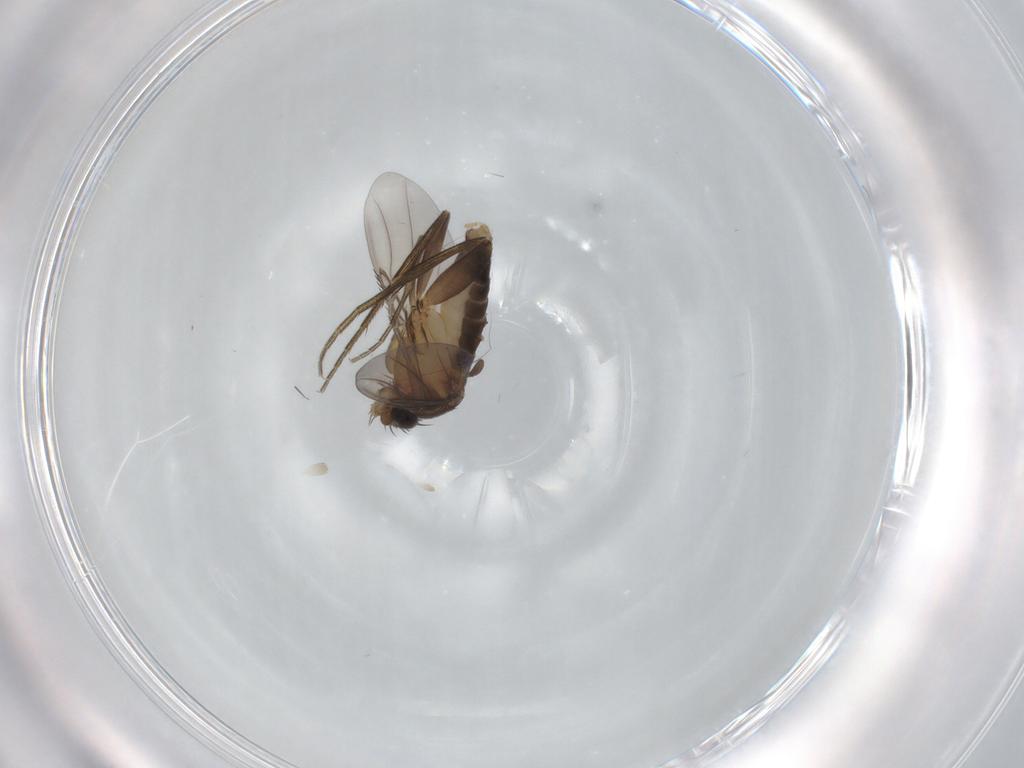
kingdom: Animalia
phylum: Arthropoda
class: Insecta
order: Diptera
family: Phoridae
